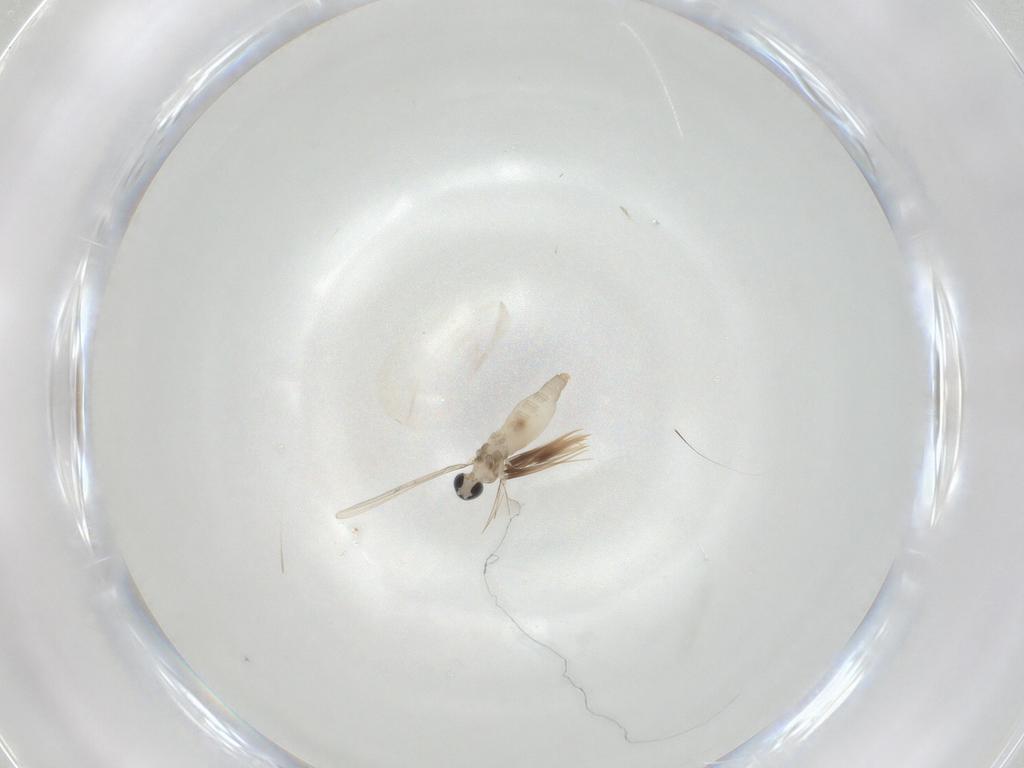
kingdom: Animalia
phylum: Arthropoda
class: Insecta
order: Diptera
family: Cecidomyiidae
